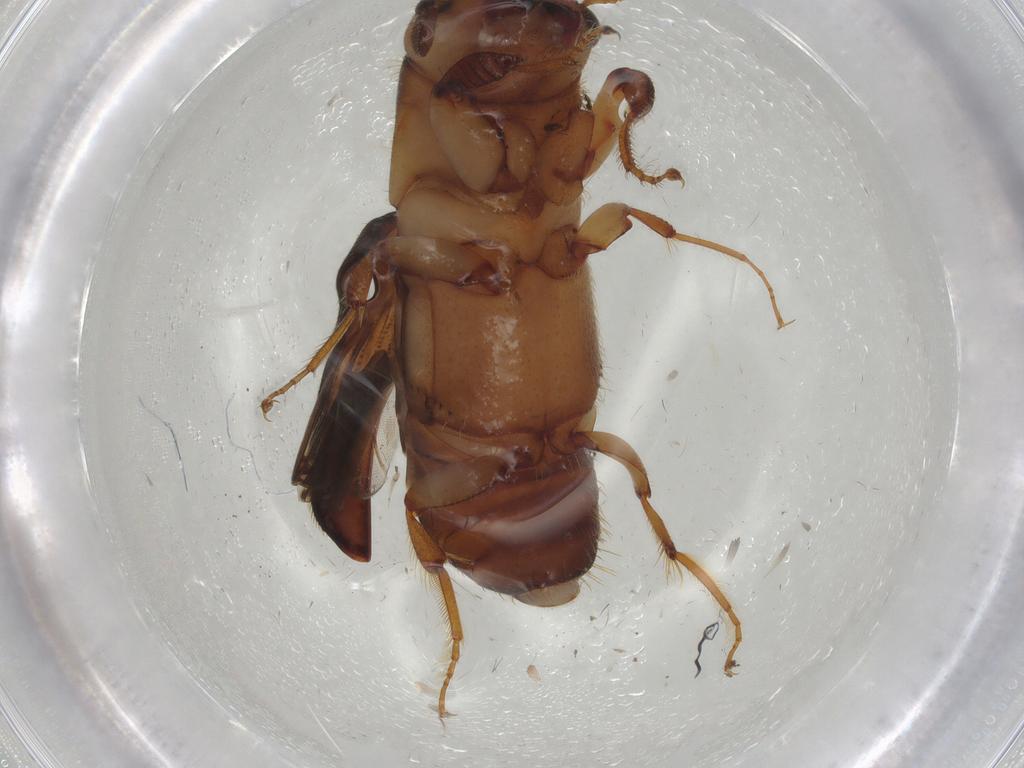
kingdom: Animalia
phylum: Arthropoda
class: Insecta
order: Coleoptera
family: Curculionidae
